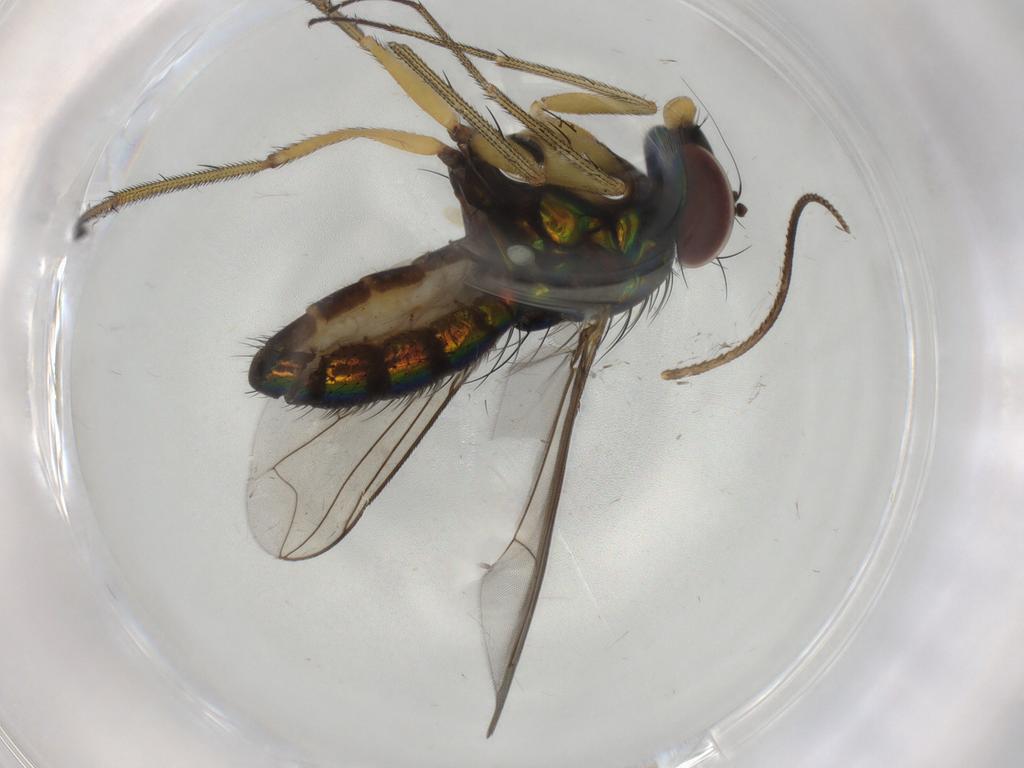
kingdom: Animalia
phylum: Arthropoda
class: Insecta
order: Diptera
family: Dolichopodidae
